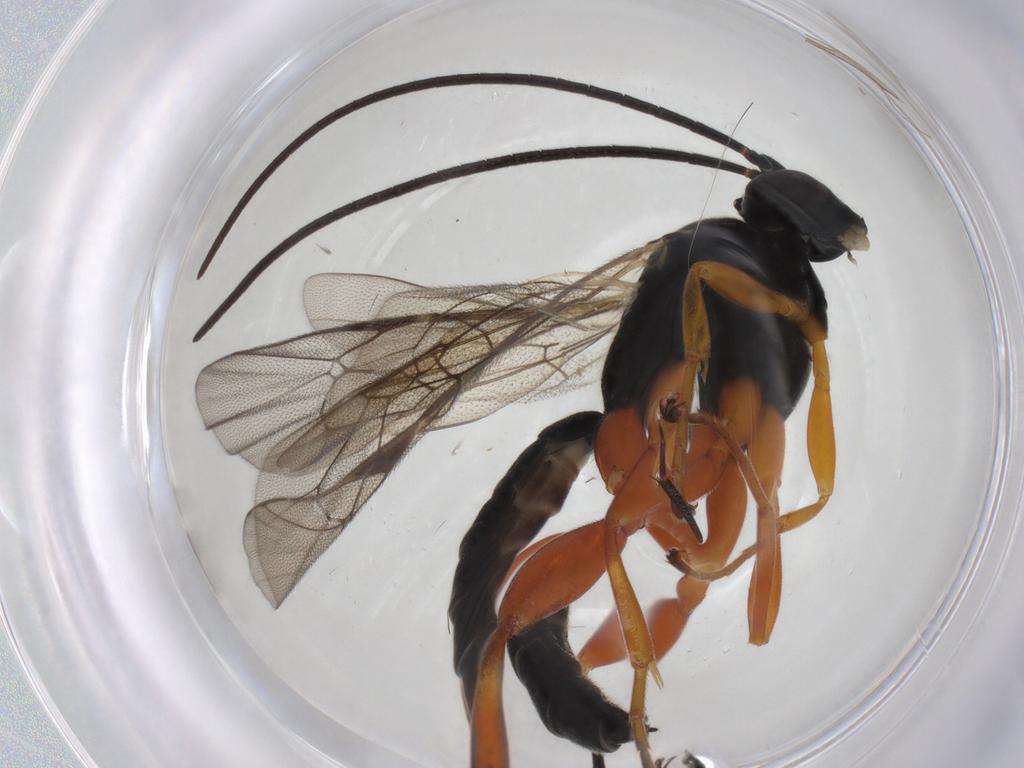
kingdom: Animalia
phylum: Arthropoda
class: Insecta
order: Hymenoptera
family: Ichneumonidae
